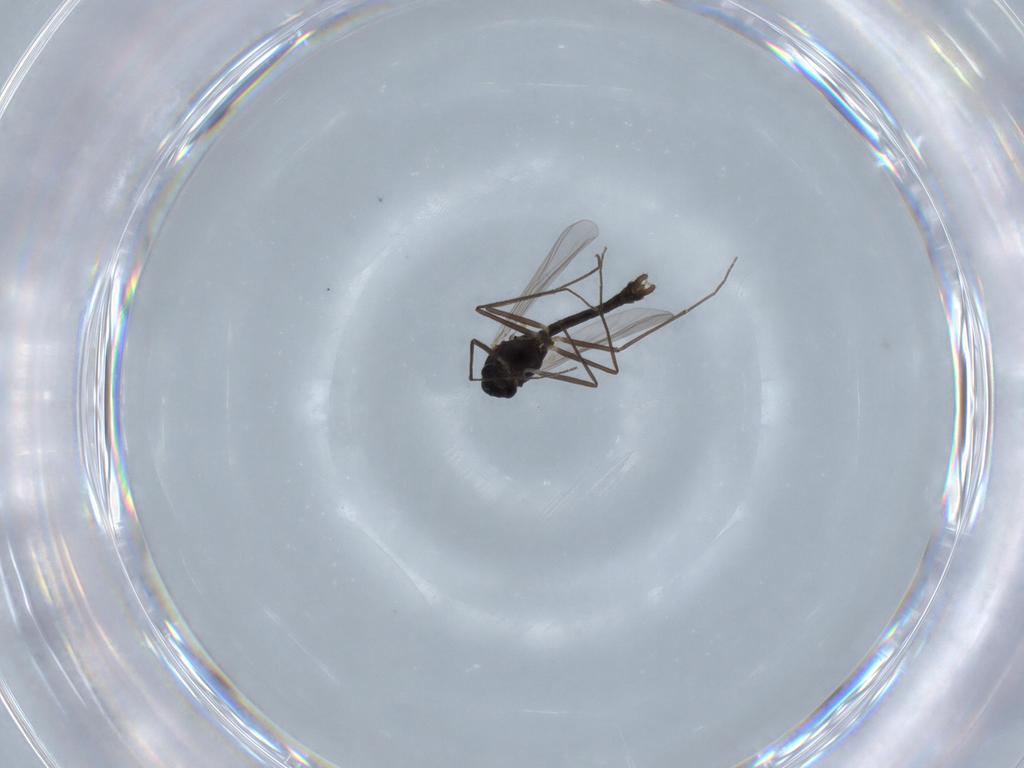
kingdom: Animalia
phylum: Arthropoda
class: Insecta
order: Diptera
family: Chironomidae
